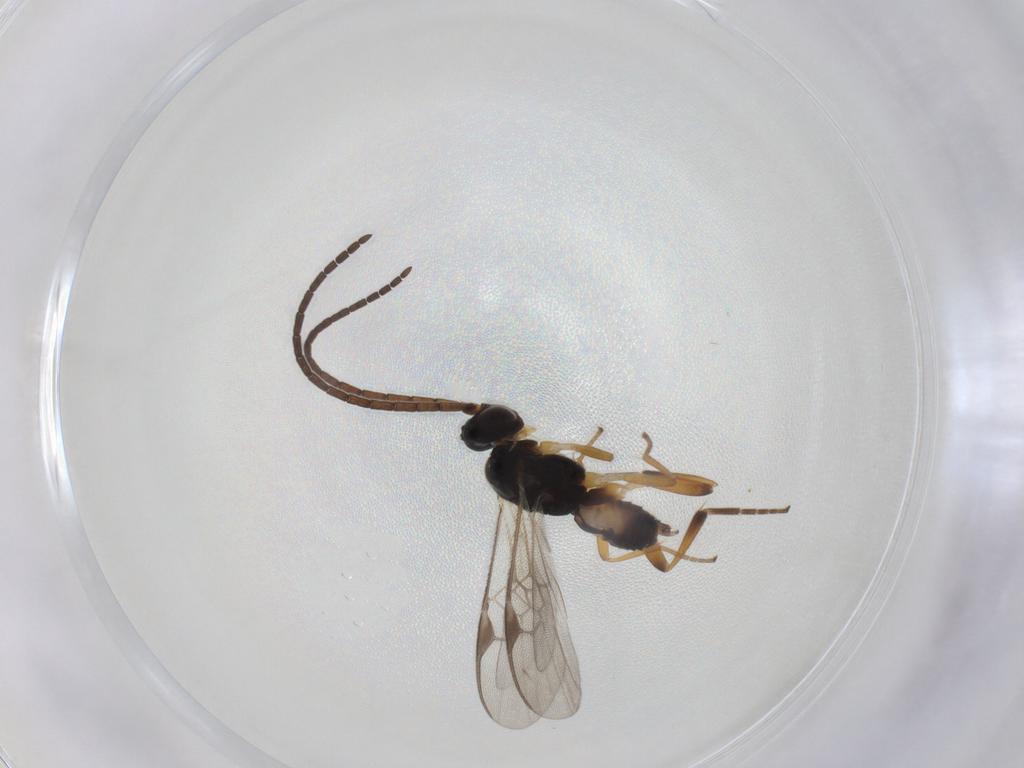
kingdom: Animalia
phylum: Arthropoda
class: Insecta
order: Hymenoptera
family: Braconidae
